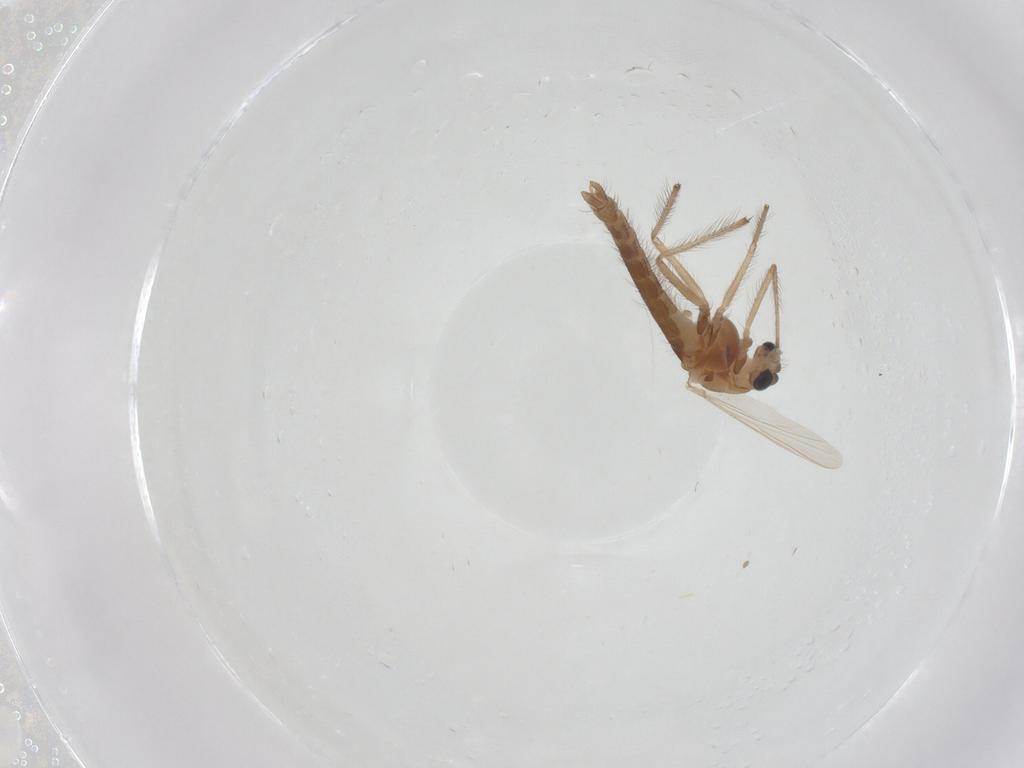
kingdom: Animalia
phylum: Arthropoda
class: Insecta
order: Diptera
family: Chironomidae
